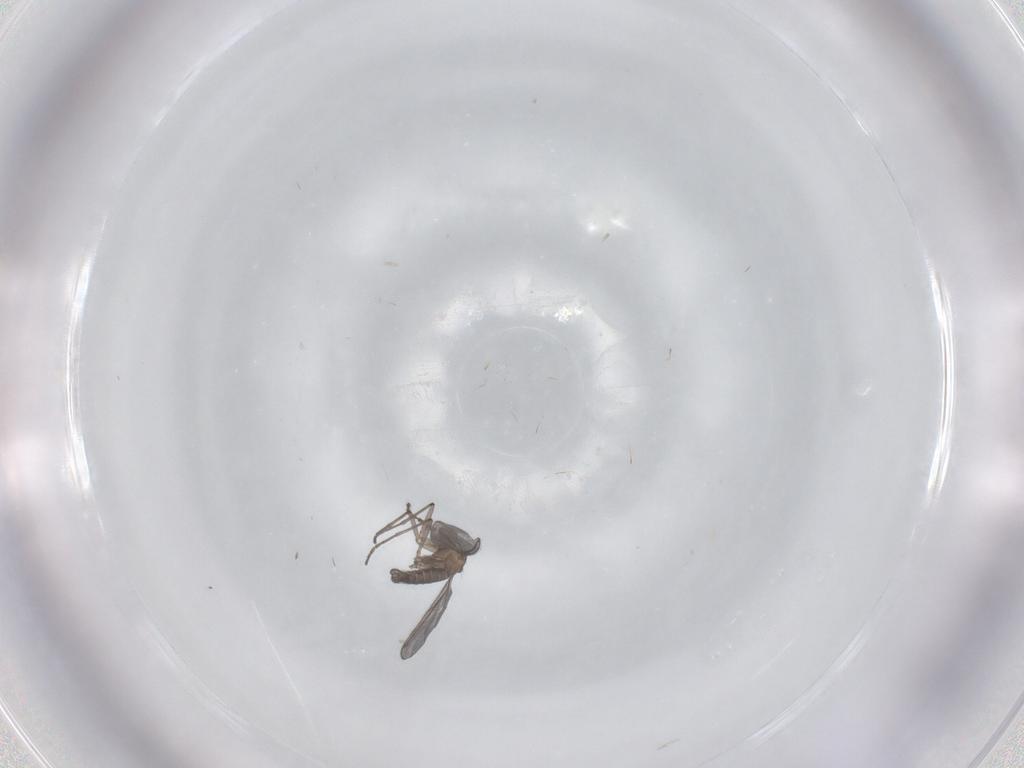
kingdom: Animalia
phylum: Arthropoda
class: Insecta
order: Diptera
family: Sciaridae
